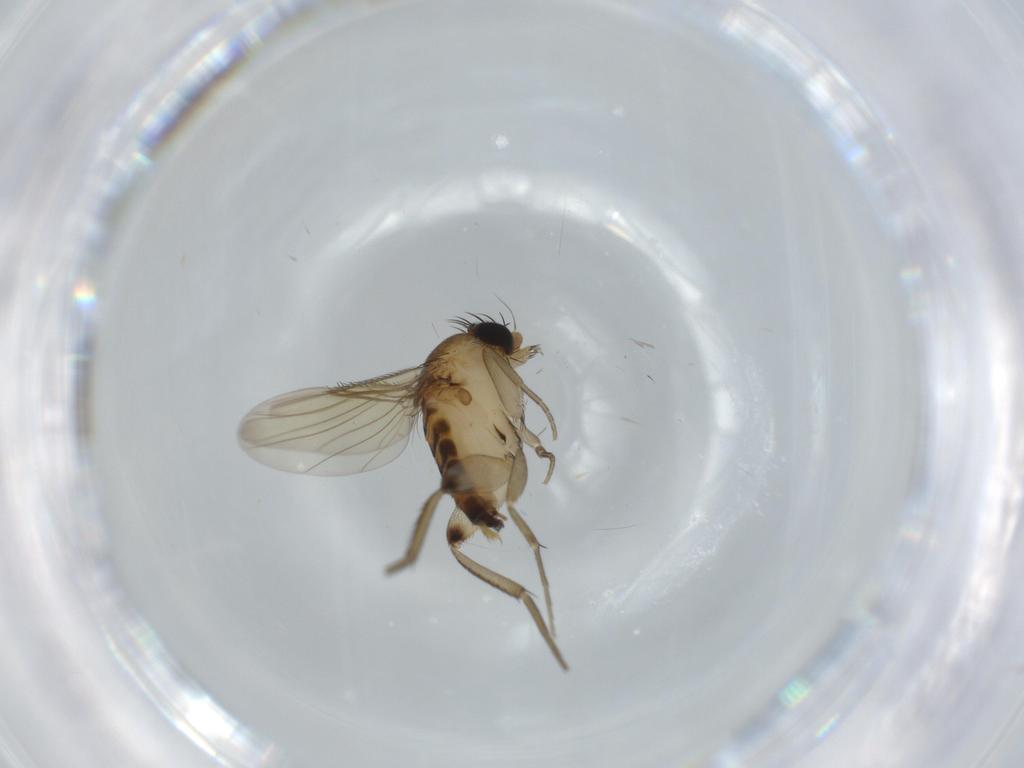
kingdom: Animalia
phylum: Arthropoda
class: Insecta
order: Diptera
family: Phoridae
